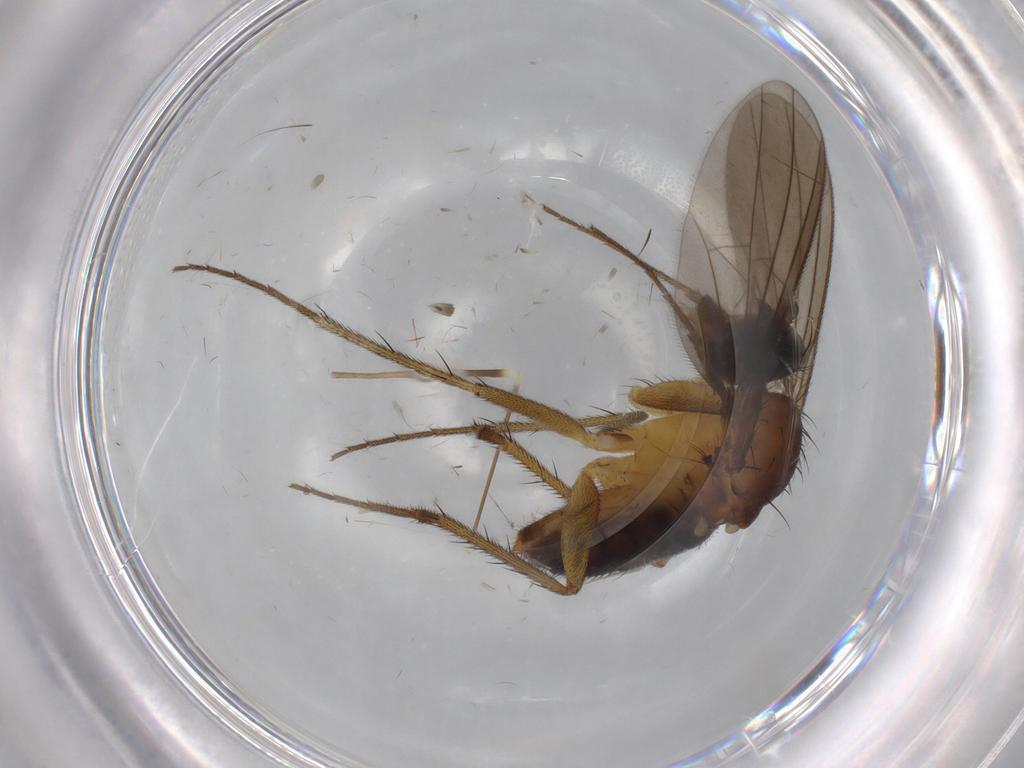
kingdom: Animalia
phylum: Arthropoda
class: Insecta
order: Diptera
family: Dolichopodidae
